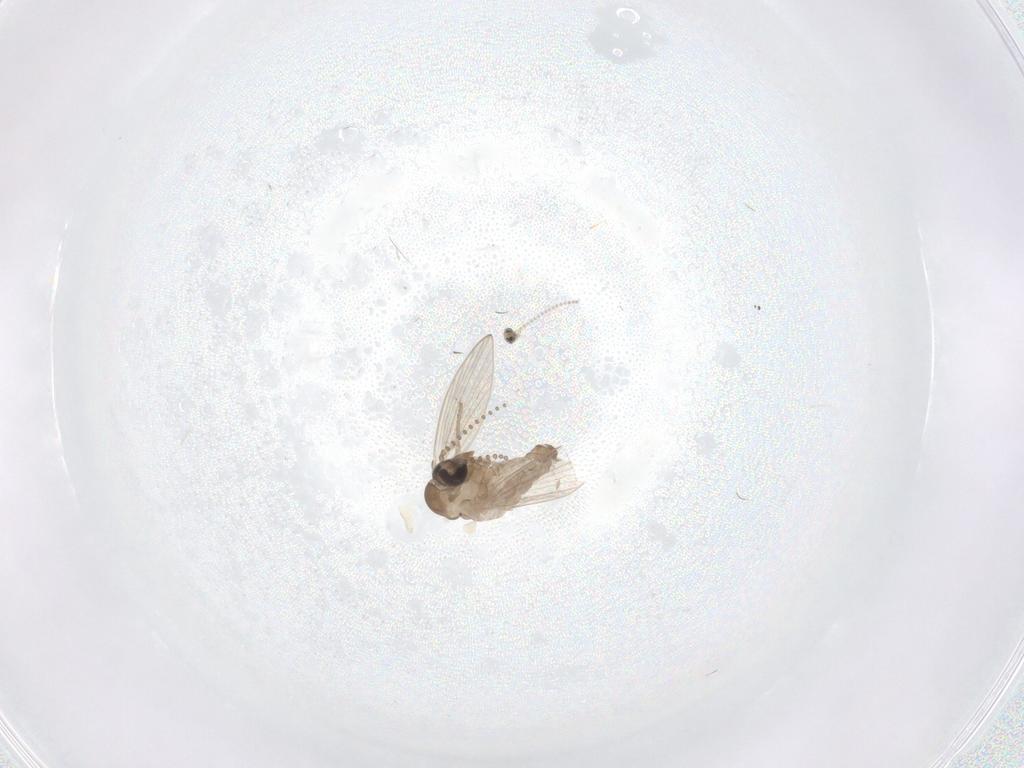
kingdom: Animalia
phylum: Arthropoda
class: Insecta
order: Diptera
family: Psychodidae
